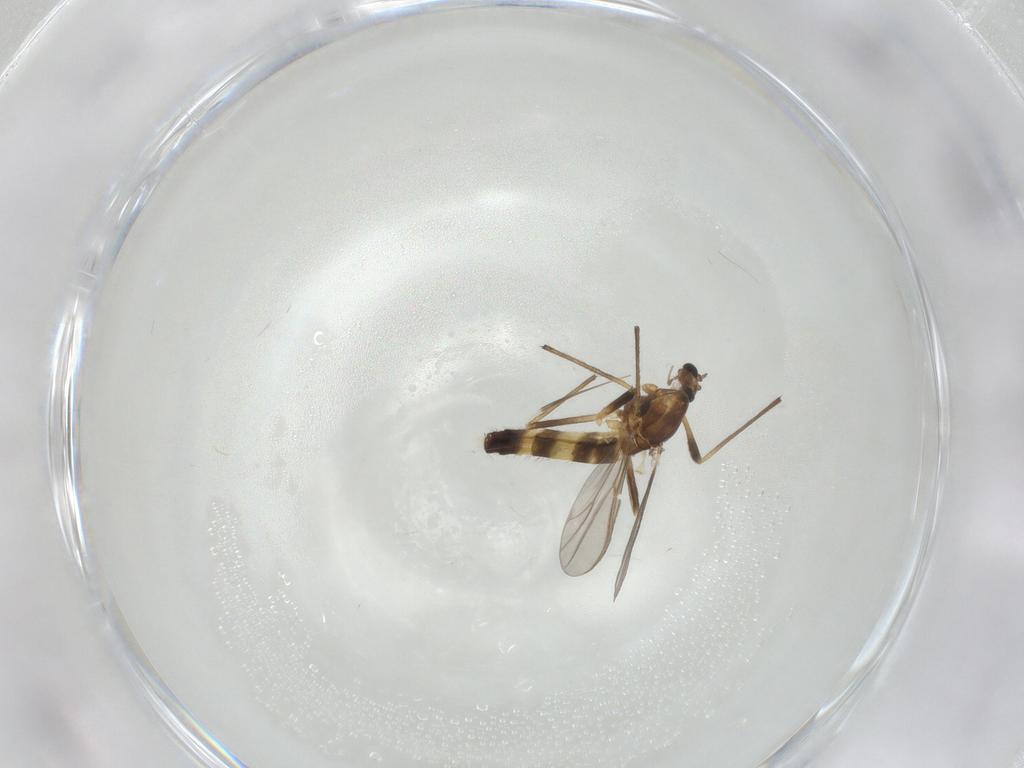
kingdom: Animalia
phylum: Arthropoda
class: Insecta
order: Diptera
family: Chironomidae
